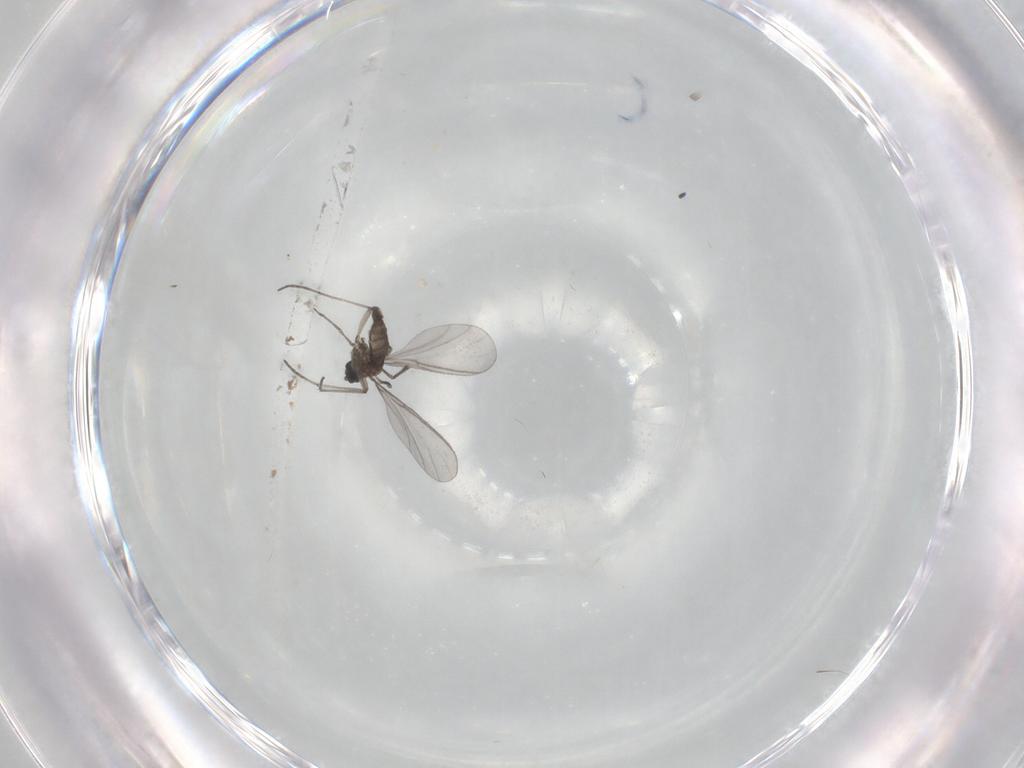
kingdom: Animalia
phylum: Arthropoda
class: Insecta
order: Diptera
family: Sciaridae
